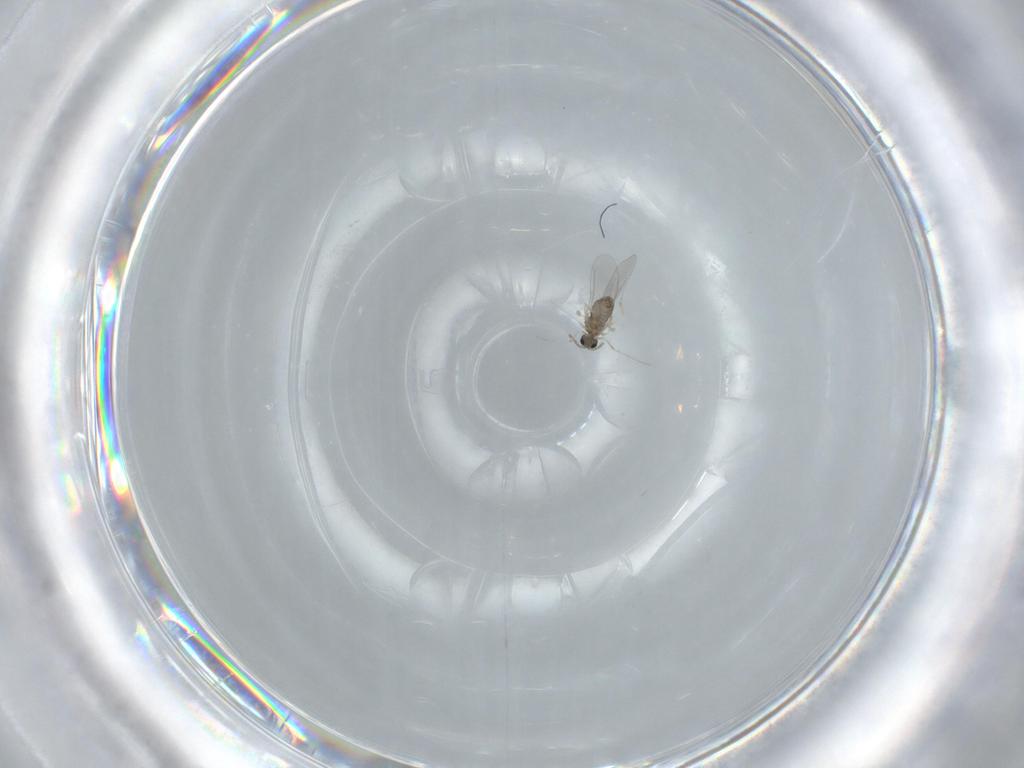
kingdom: Animalia
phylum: Arthropoda
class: Insecta
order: Diptera
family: Cecidomyiidae
